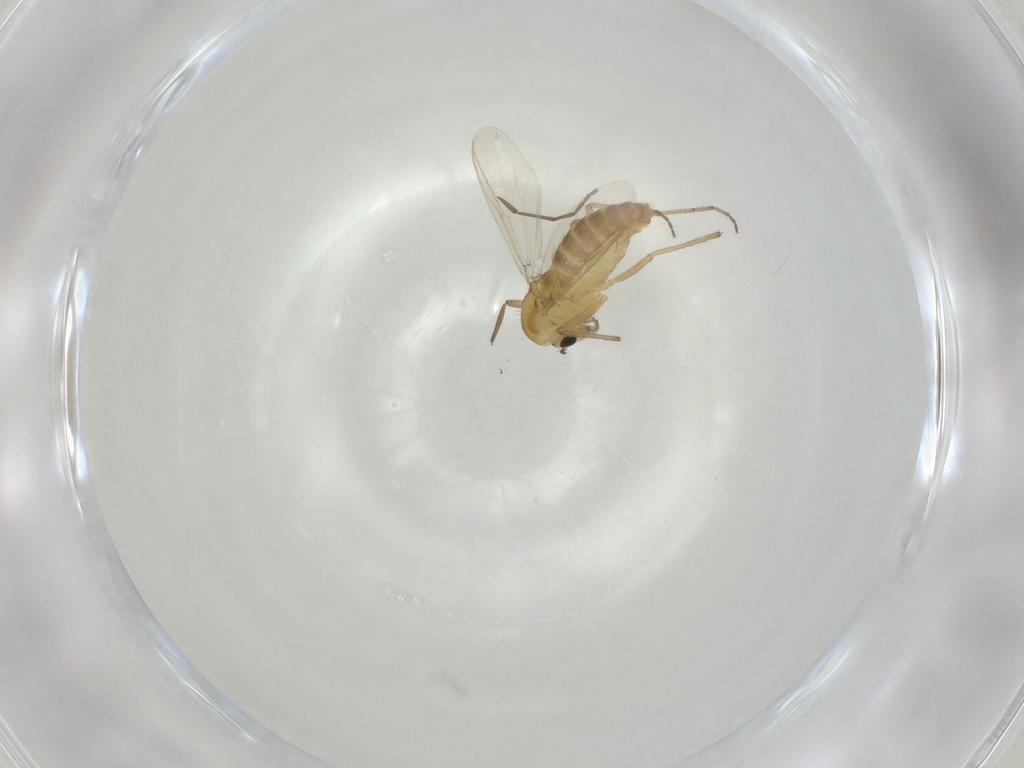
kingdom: Animalia
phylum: Arthropoda
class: Insecta
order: Diptera
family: Chironomidae
